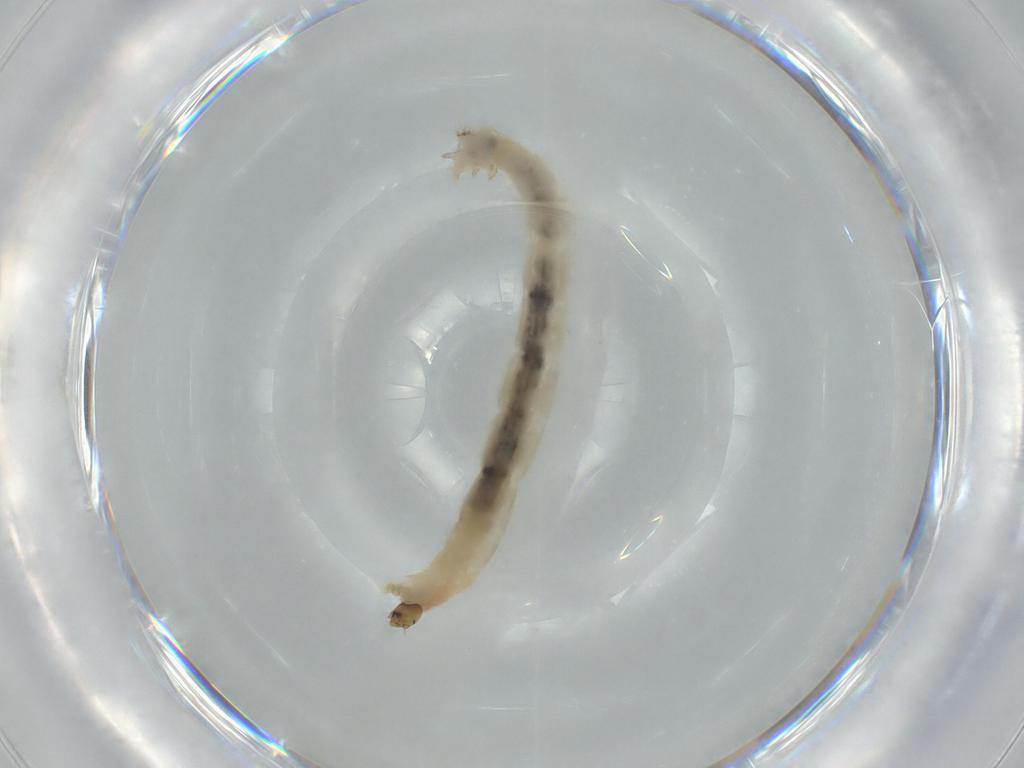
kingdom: Animalia
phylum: Arthropoda
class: Insecta
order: Diptera
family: Chironomidae
